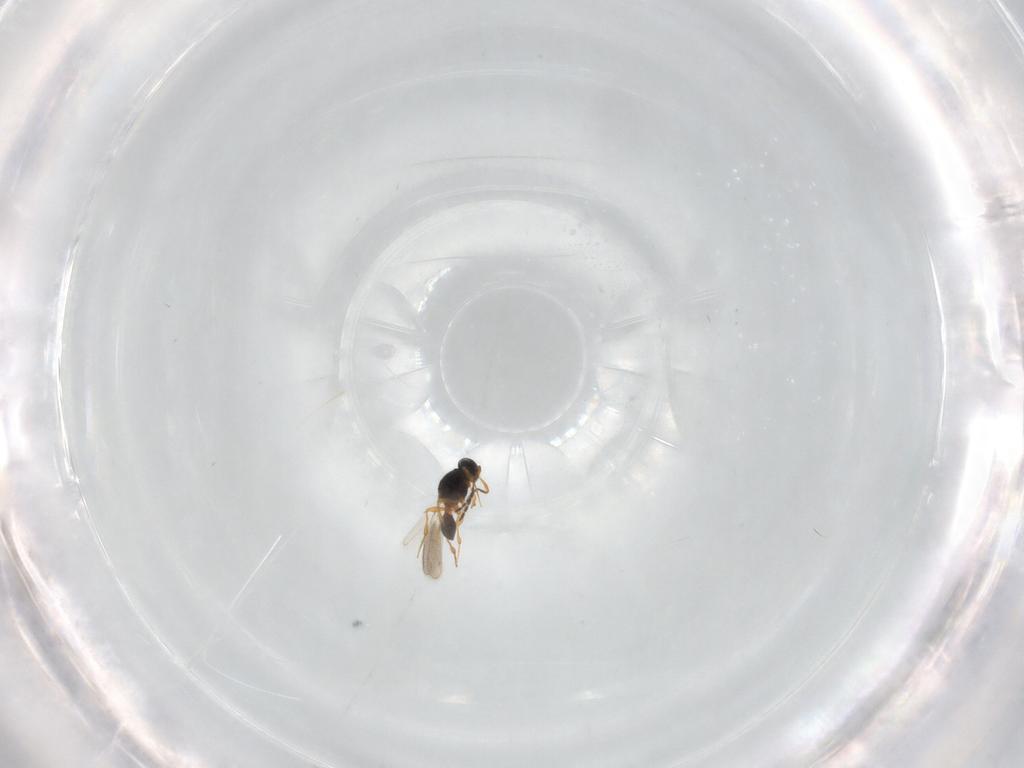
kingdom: Animalia
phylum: Arthropoda
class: Insecta
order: Hymenoptera
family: Platygastridae
